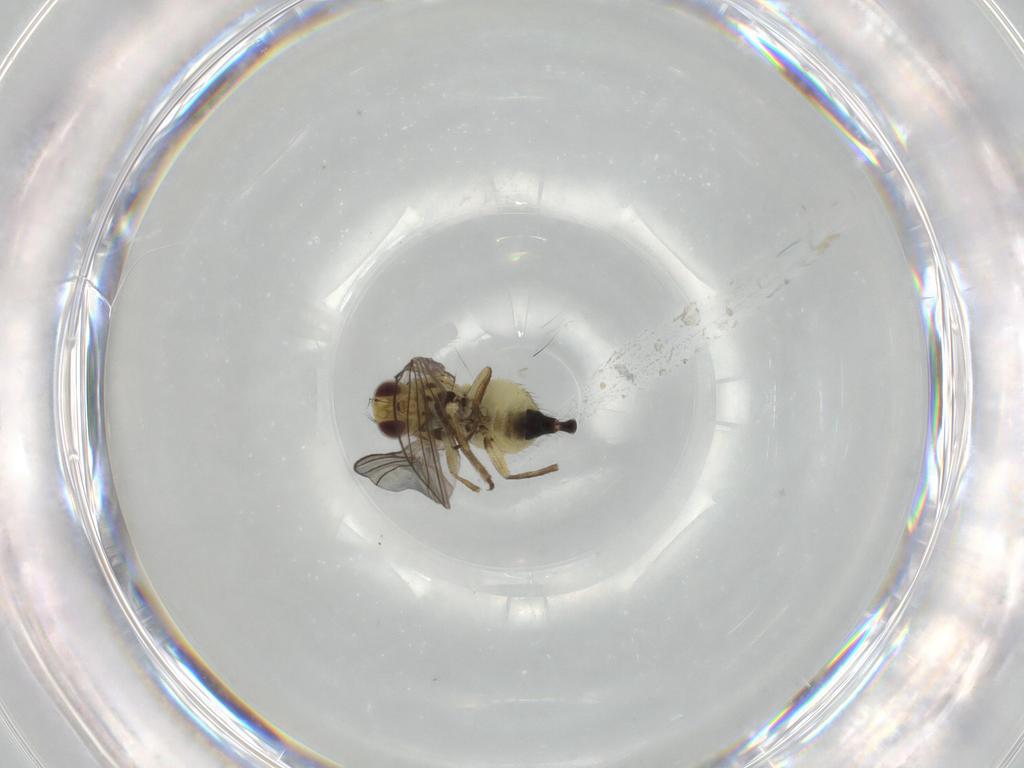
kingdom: Animalia
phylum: Arthropoda
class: Insecta
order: Diptera
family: Agromyzidae
